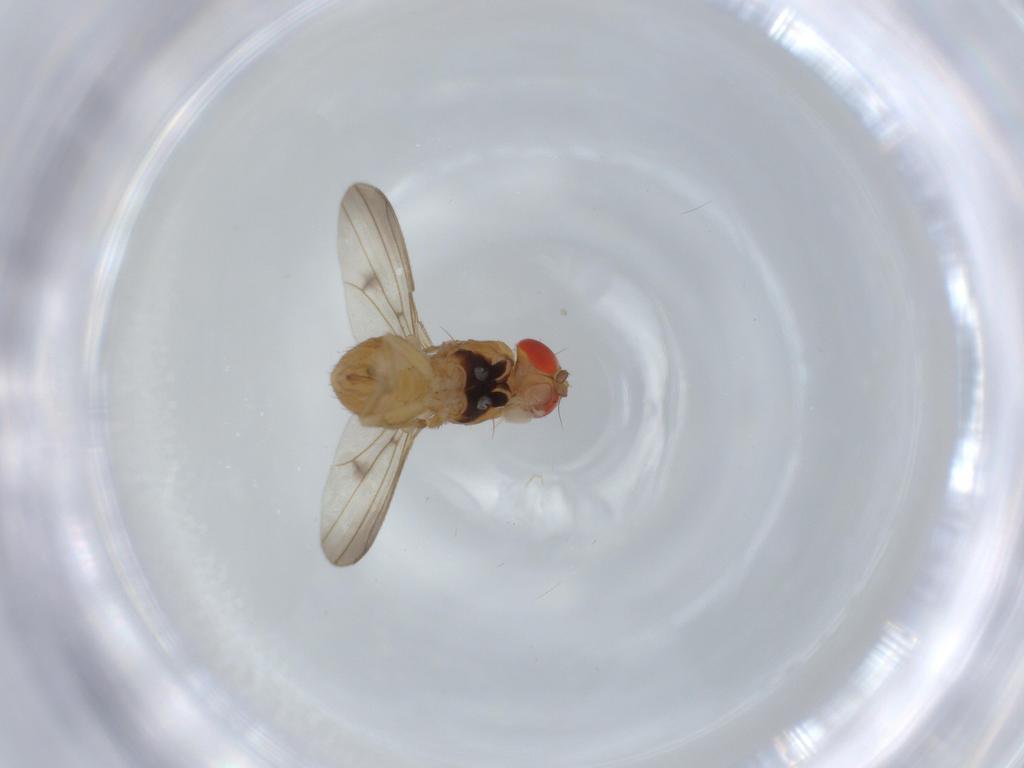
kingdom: Animalia
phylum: Arthropoda
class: Insecta
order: Diptera
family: Drosophilidae
